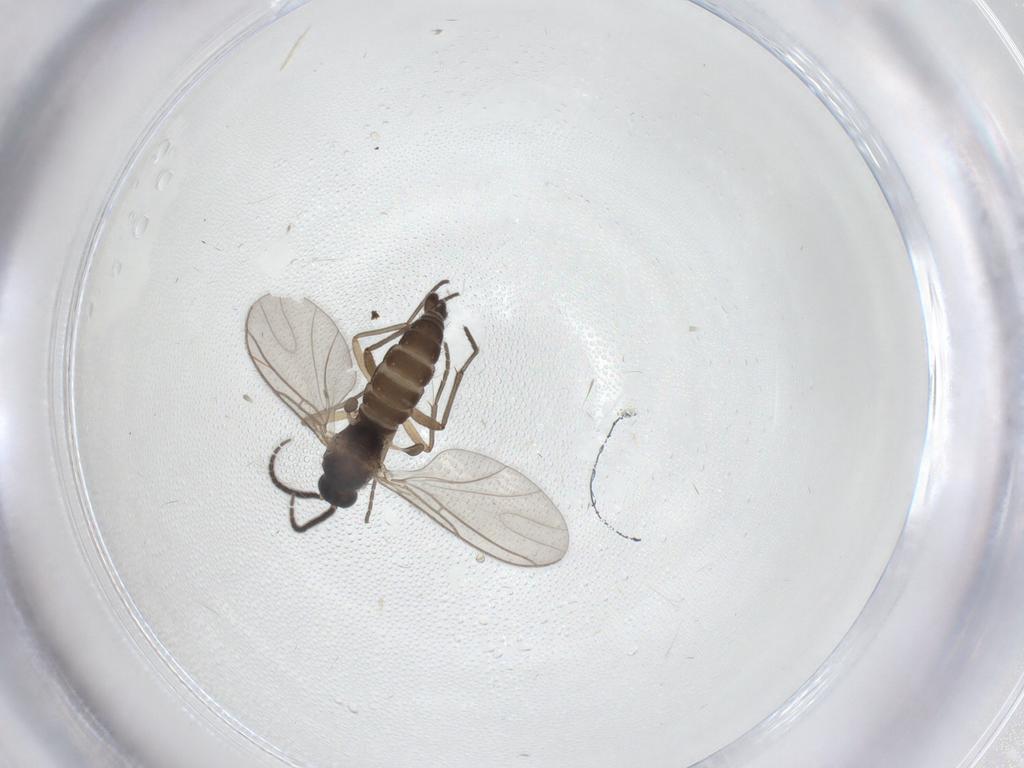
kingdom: Animalia
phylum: Arthropoda
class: Insecta
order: Diptera
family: Sciaridae
